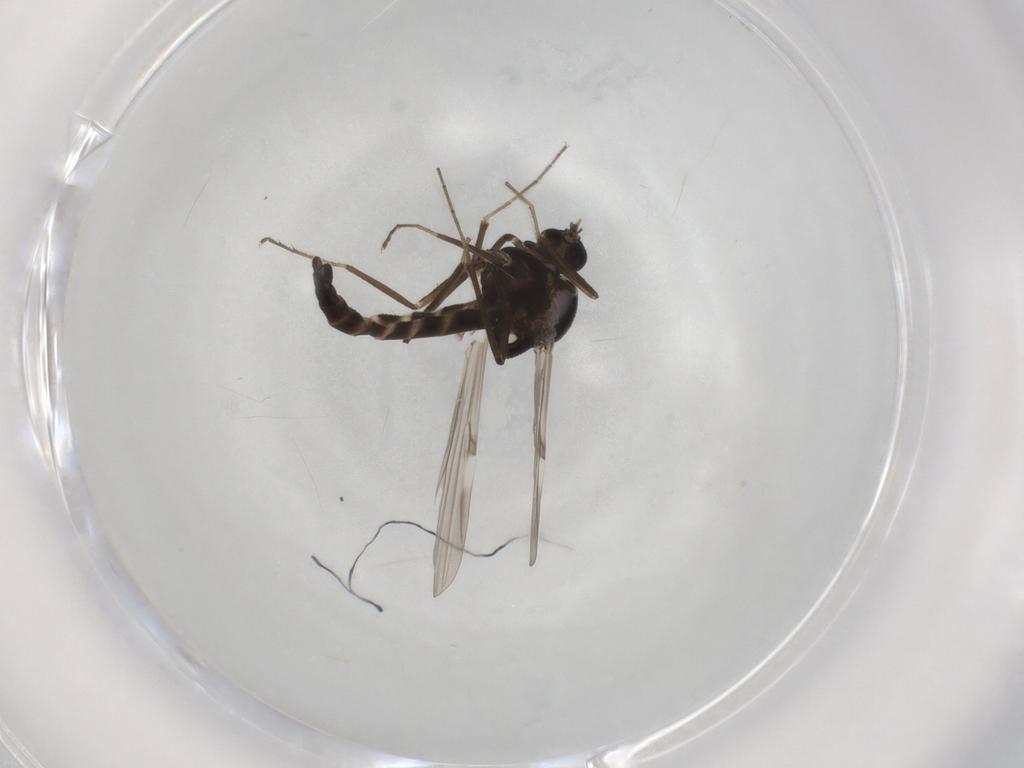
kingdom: Animalia
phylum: Arthropoda
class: Insecta
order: Diptera
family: Ceratopogonidae
